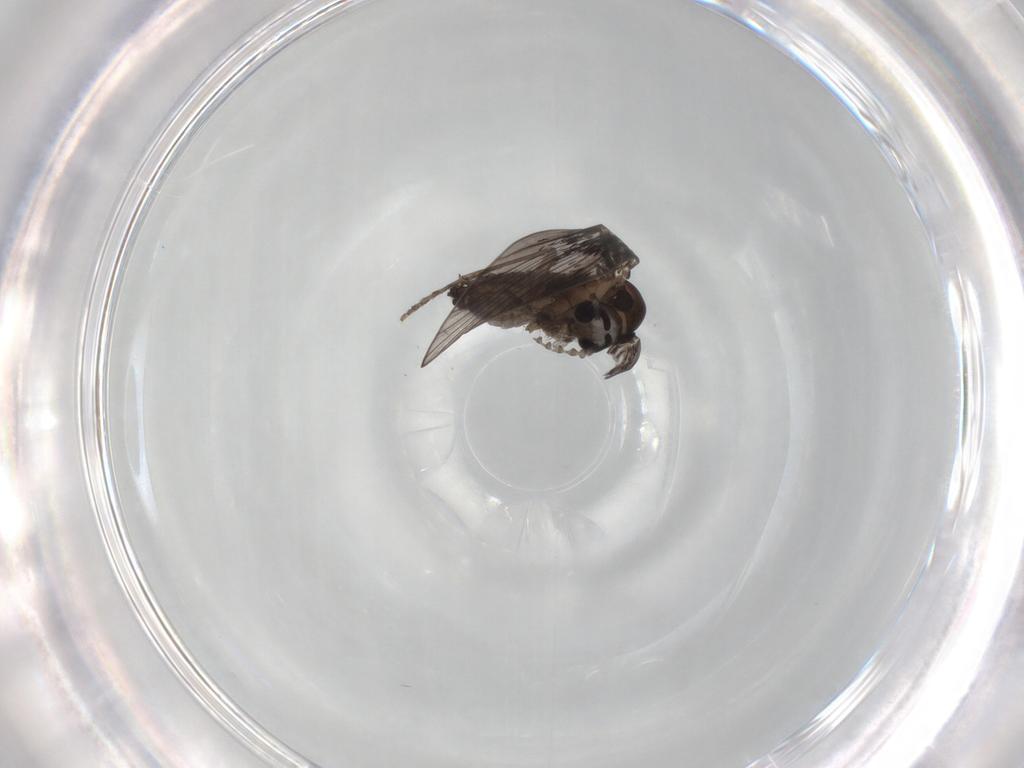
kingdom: Animalia
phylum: Arthropoda
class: Insecta
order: Diptera
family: Psychodidae
